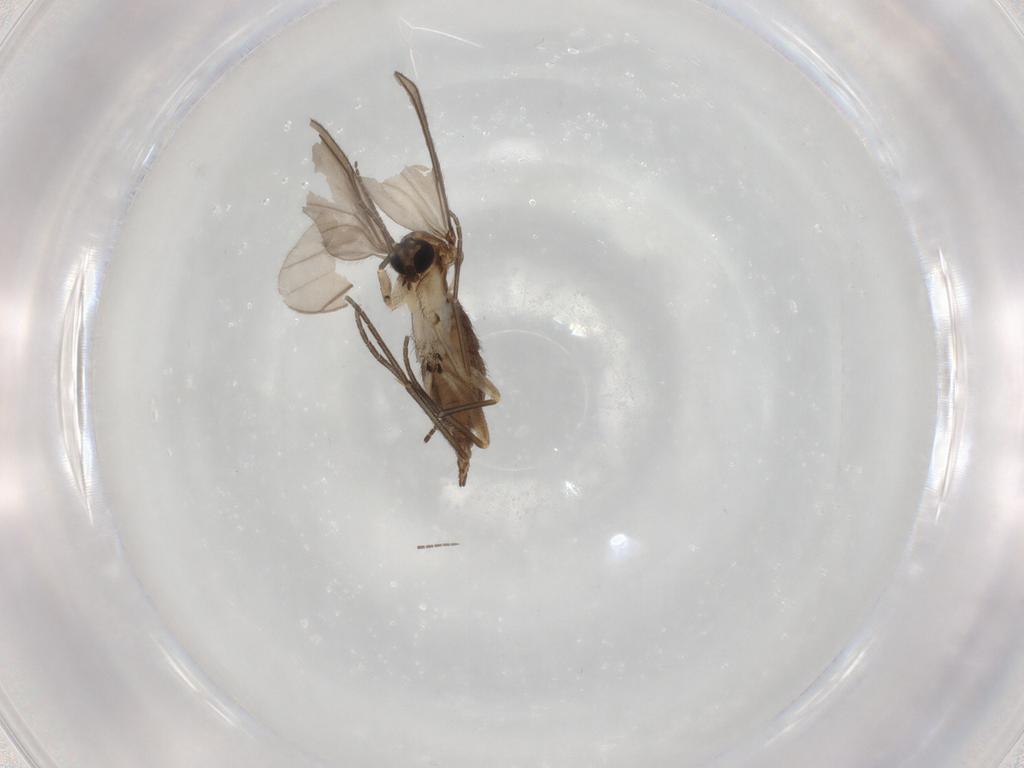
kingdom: Animalia
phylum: Arthropoda
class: Insecta
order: Diptera
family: Sciaridae
